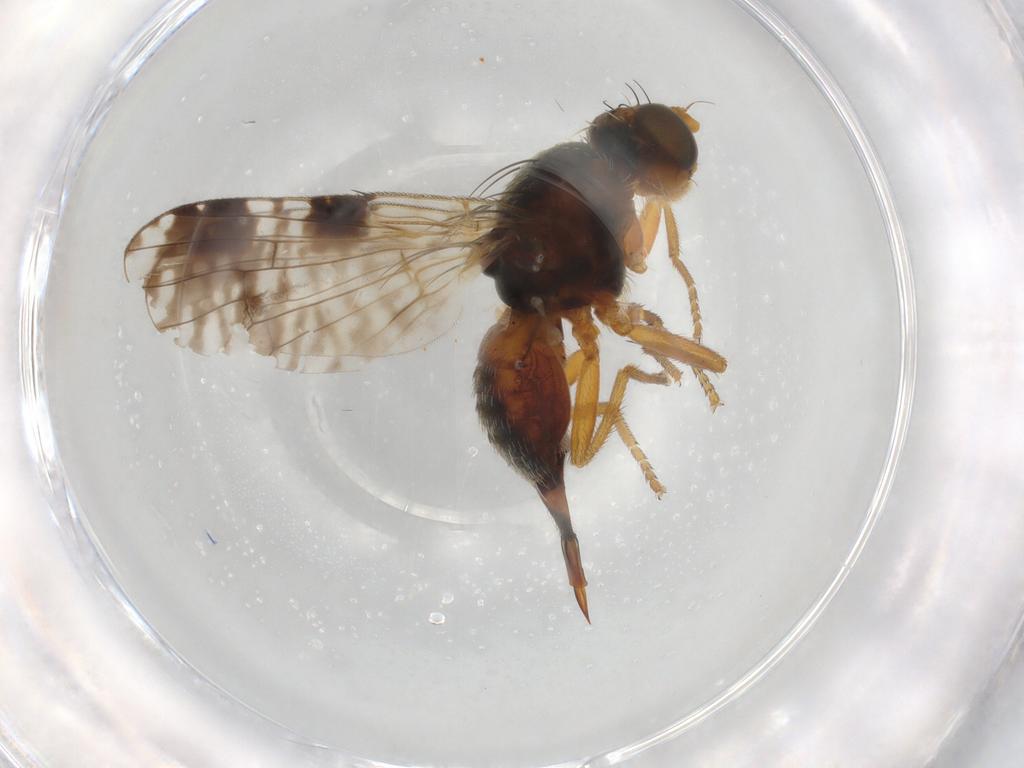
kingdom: Animalia
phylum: Arthropoda
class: Insecta
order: Diptera
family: Tephritidae
